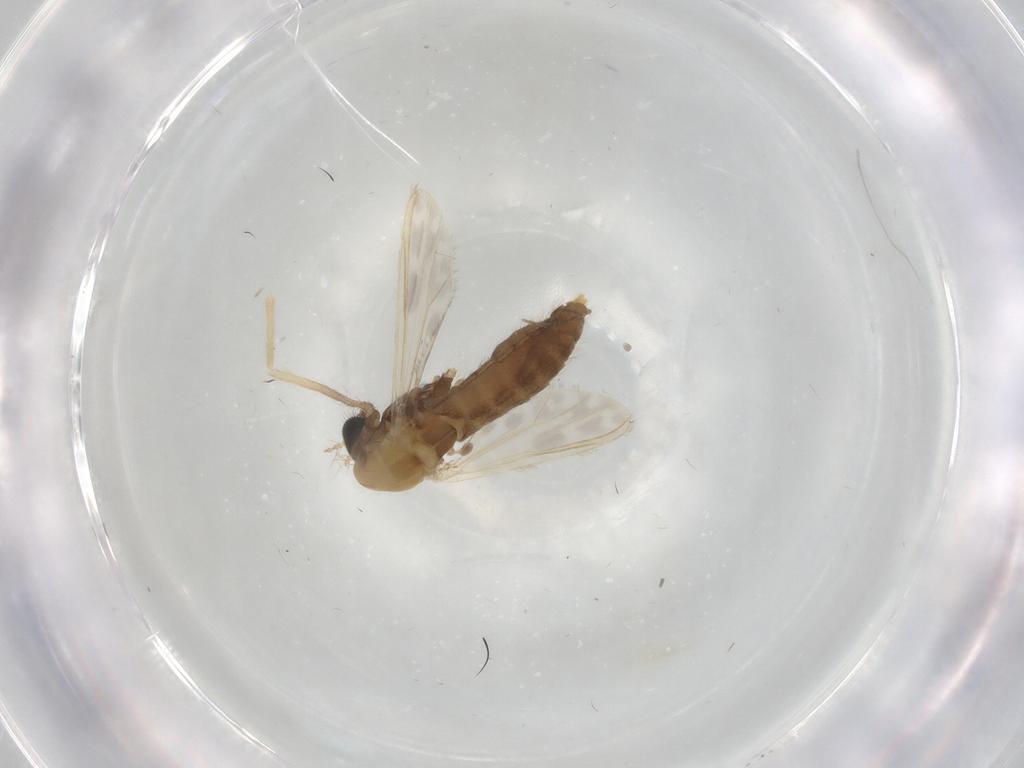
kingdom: Animalia
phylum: Arthropoda
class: Insecta
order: Diptera
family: Chironomidae
